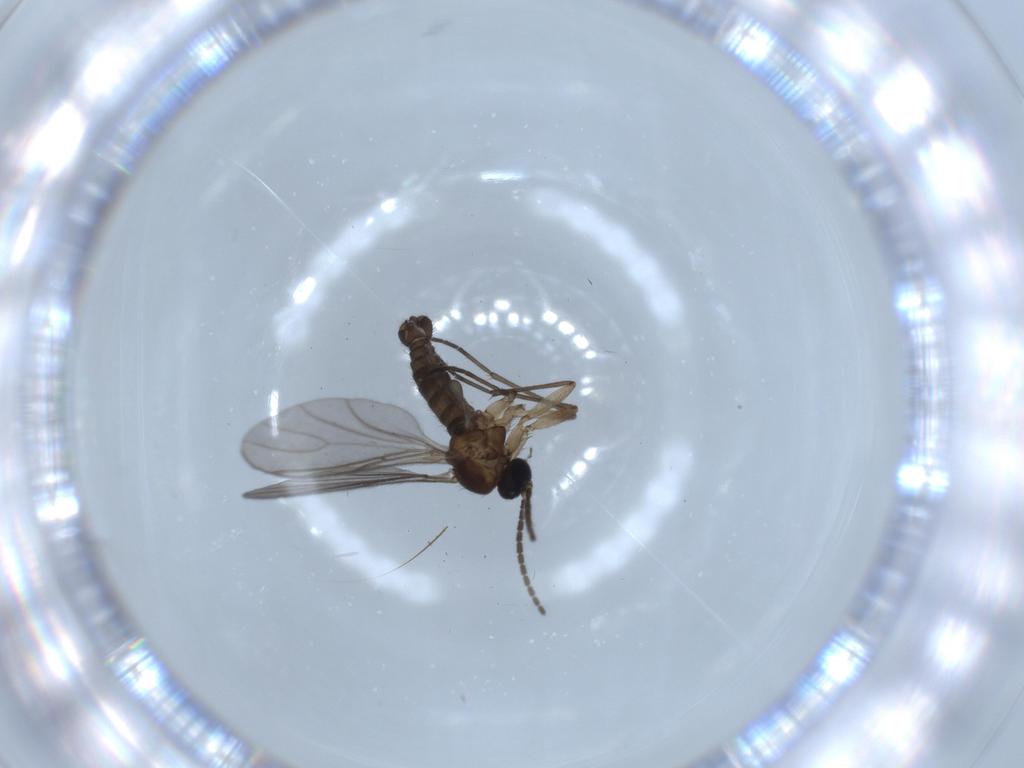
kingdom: Animalia
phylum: Arthropoda
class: Insecta
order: Diptera
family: Sciaridae
